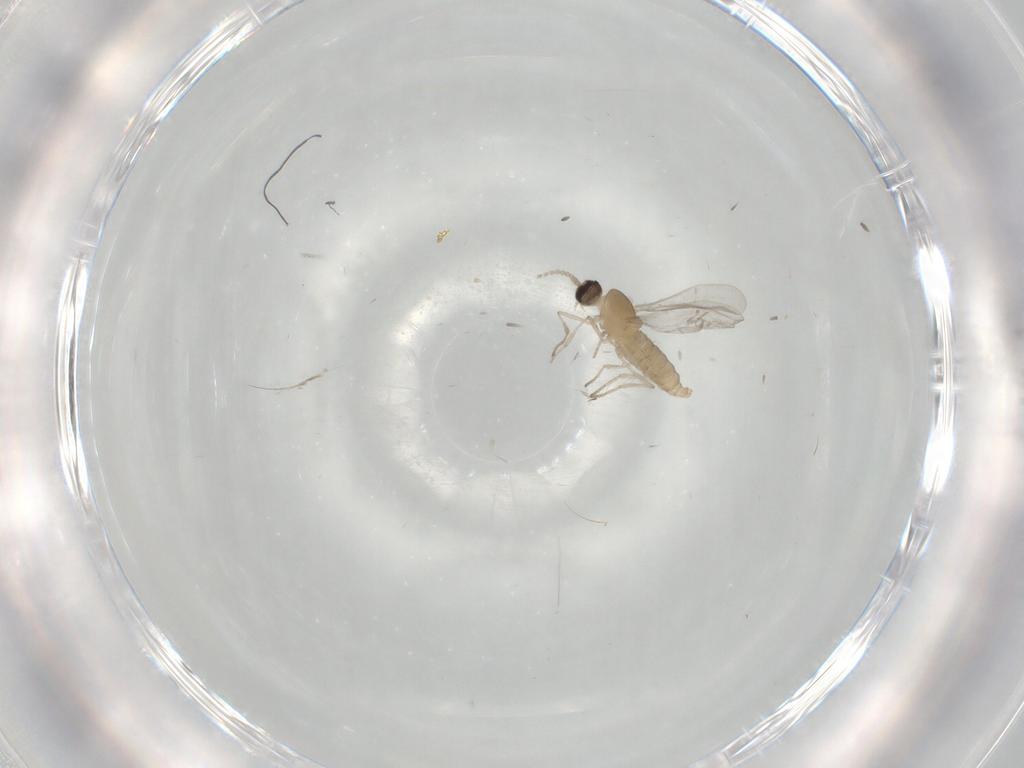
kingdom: Animalia
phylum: Arthropoda
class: Insecta
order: Diptera
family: Cecidomyiidae
